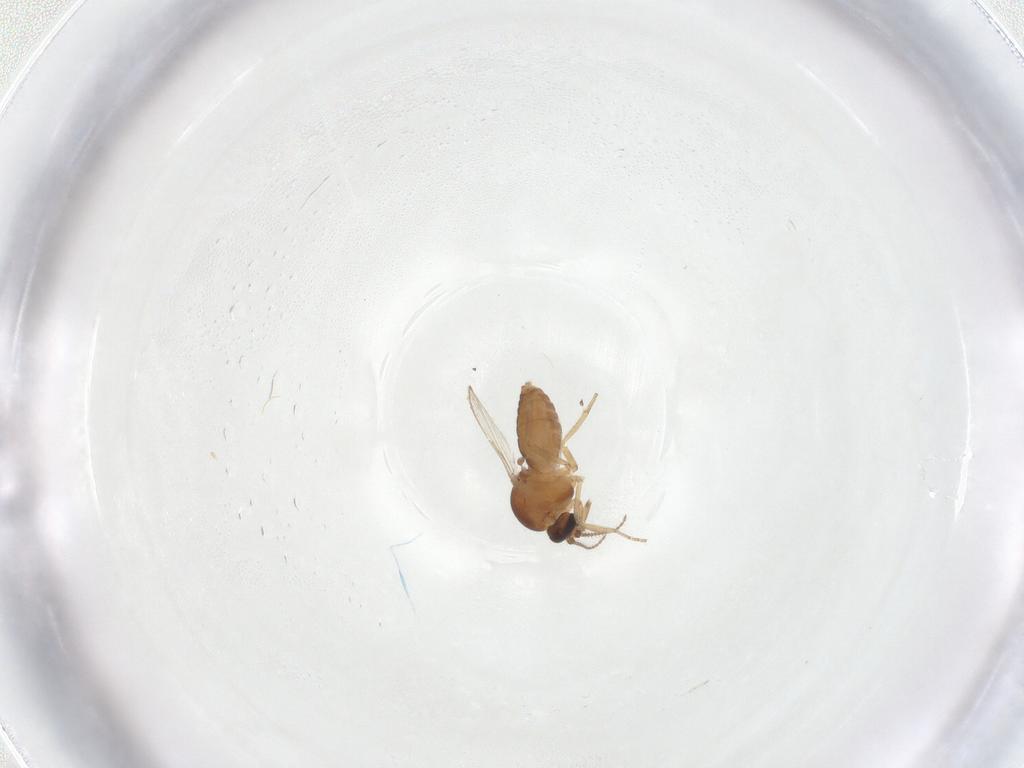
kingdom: Animalia
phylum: Arthropoda
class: Insecta
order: Diptera
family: Ceratopogonidae
